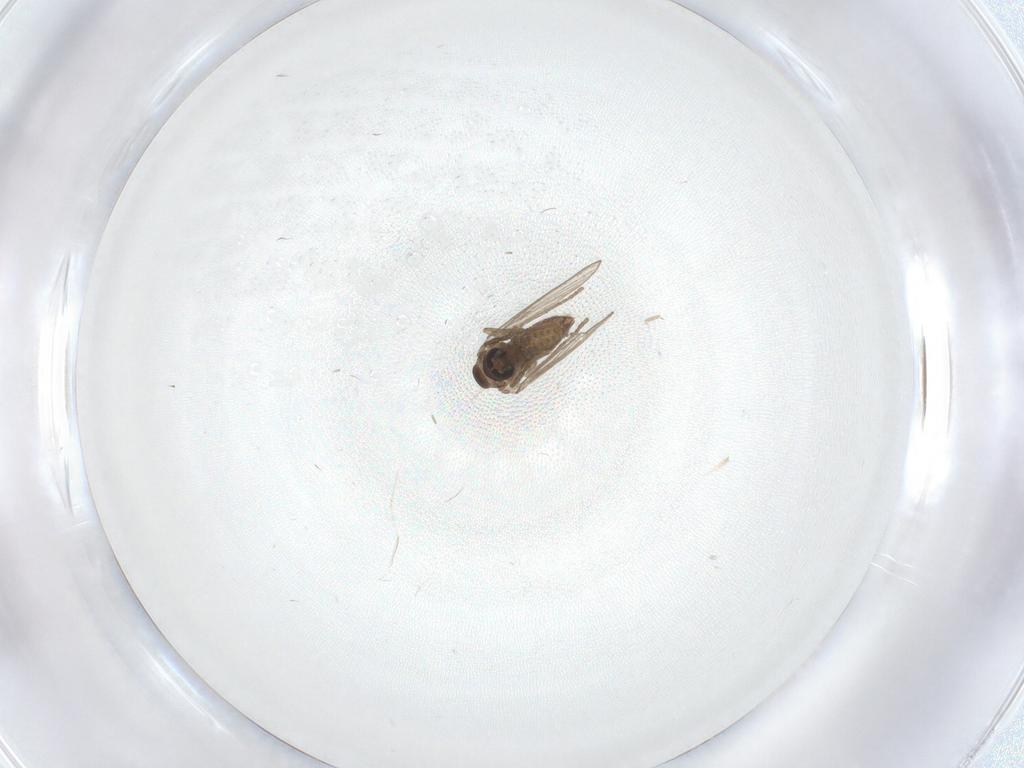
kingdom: Animalia
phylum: Arthropoda
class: Insecta
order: Diptera
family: Cecidomyiidae
